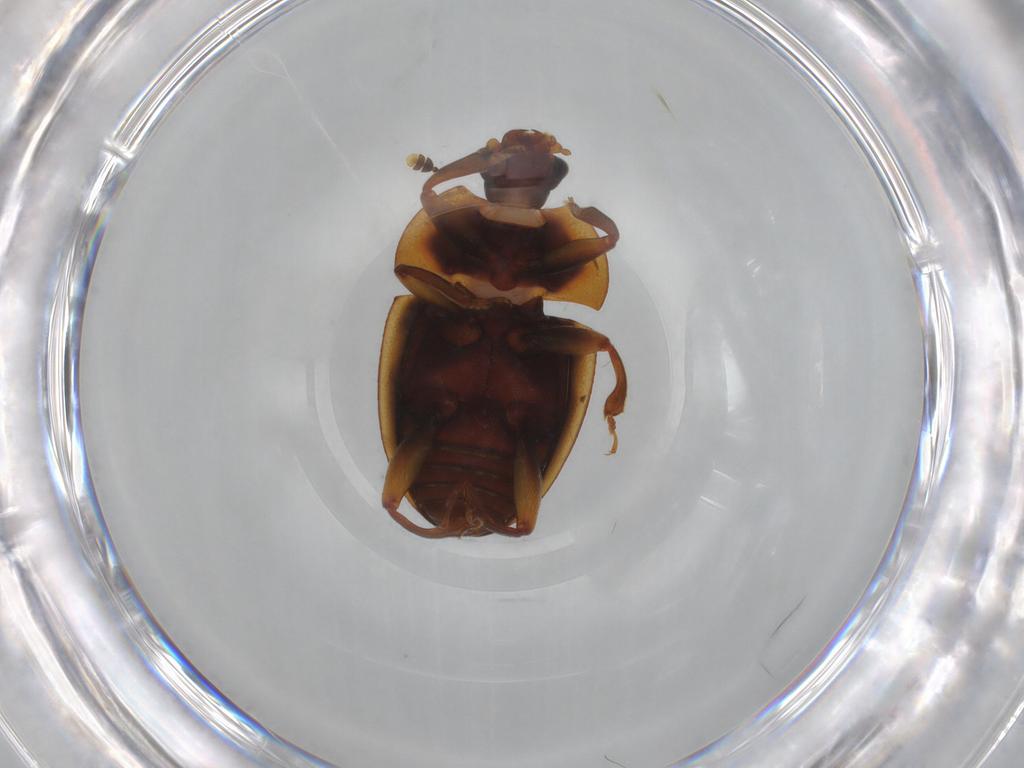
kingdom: Animalia
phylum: Arthropoda
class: Insecta
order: Coleoptera
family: Nitidulidae
